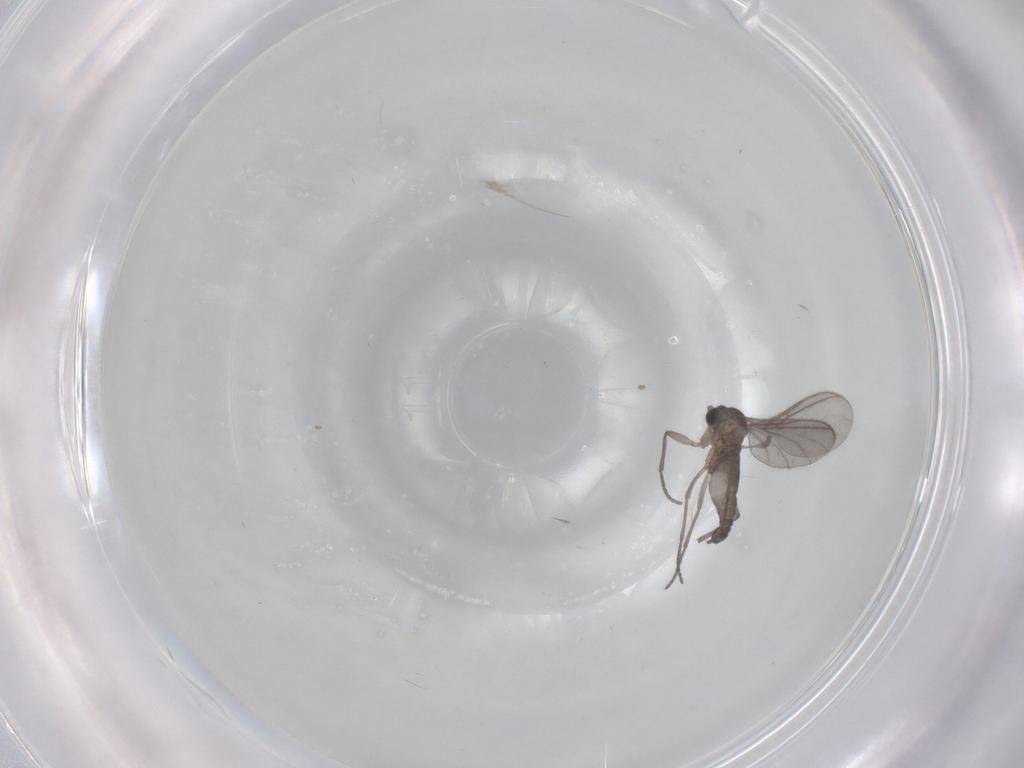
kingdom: Animalia
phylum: Arthropoda
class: Insecta
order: Diptera
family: Sciaridae
